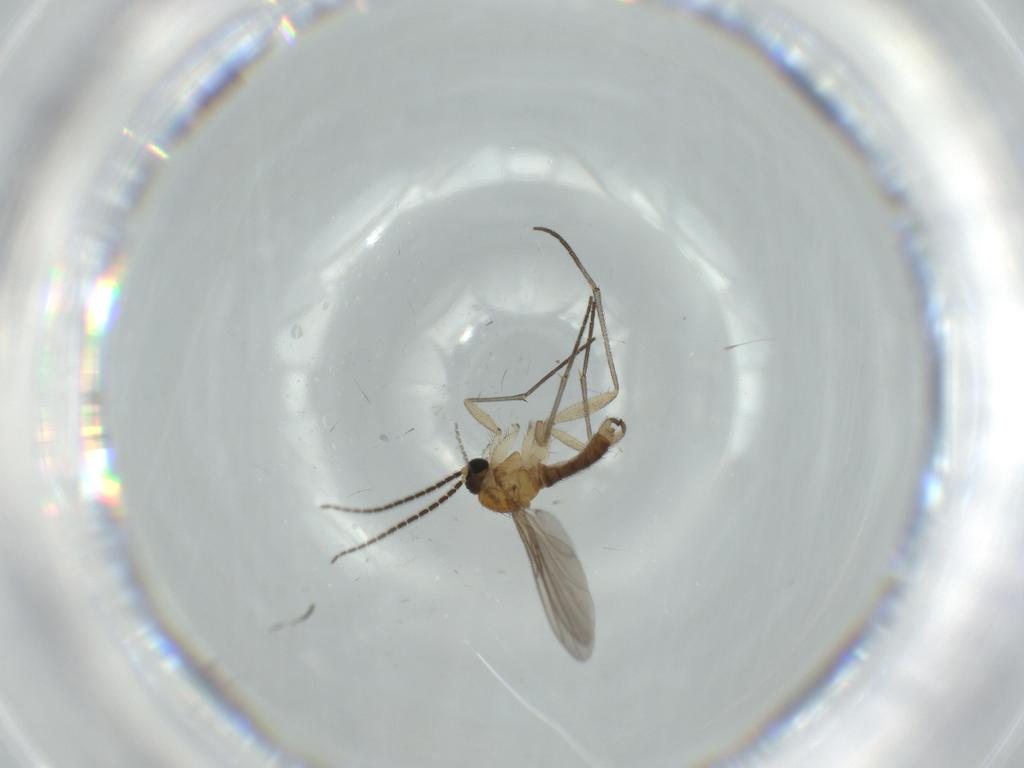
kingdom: Animalia
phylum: Arthropoda
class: Insecta
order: Diptera
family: Sciaridae
